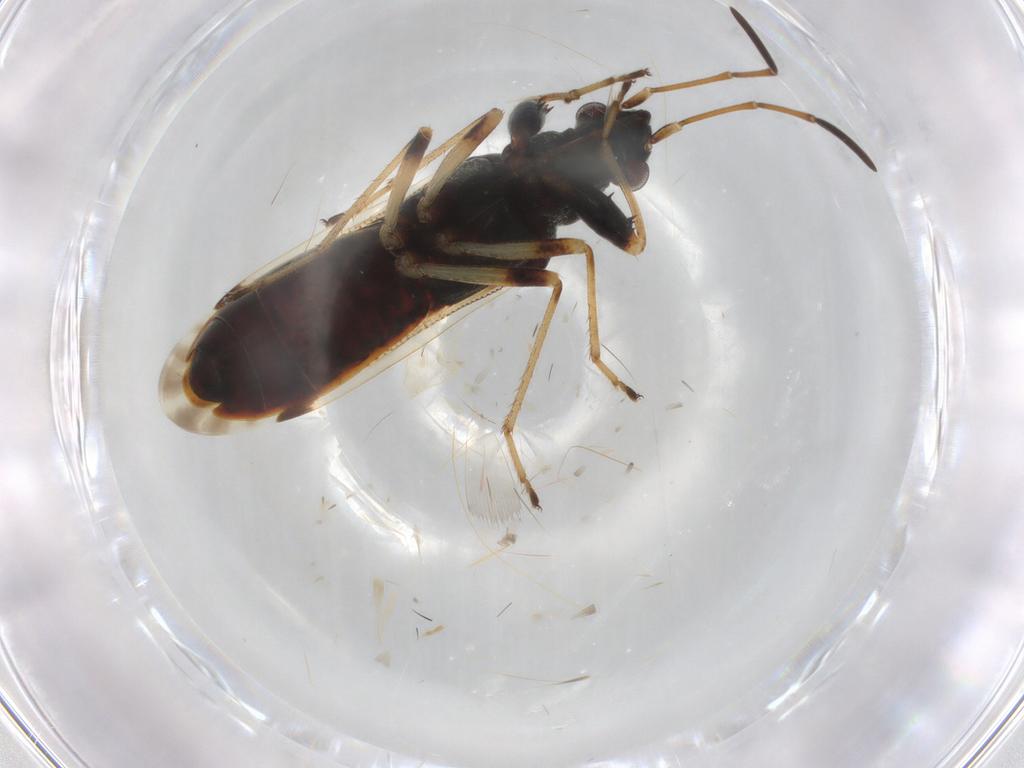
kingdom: Animalia
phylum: Arthropoda
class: Insecta
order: Hemiptera
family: Rhyparochromidae
